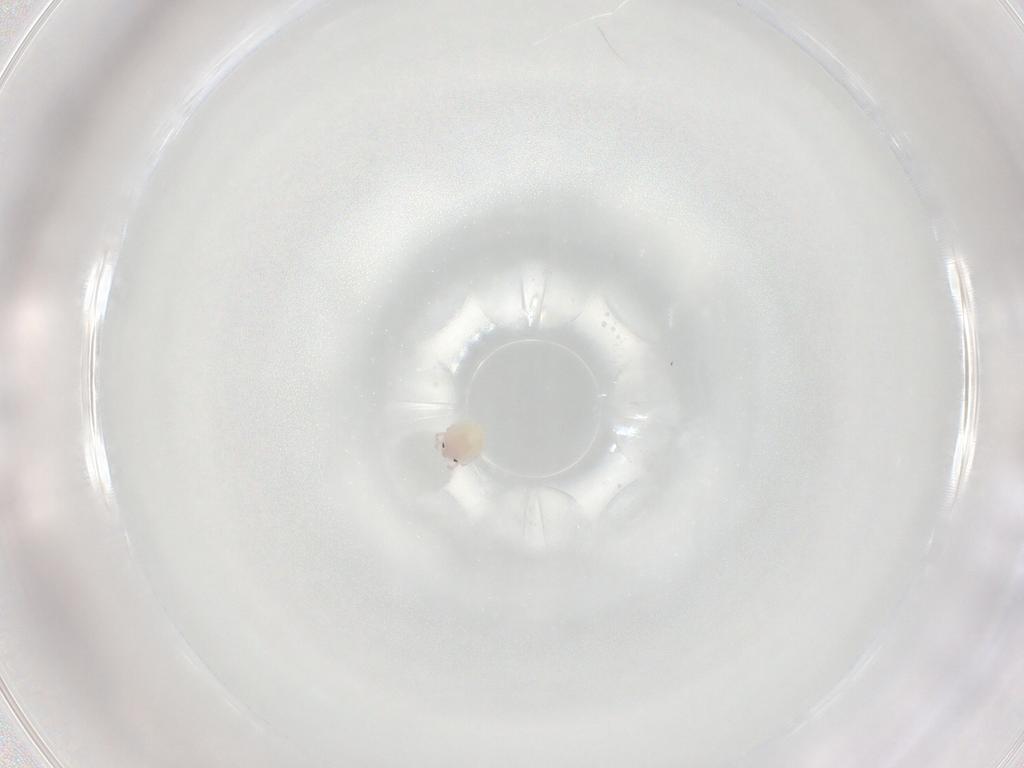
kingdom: Animalia
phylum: Arthropoda
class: Arachnida
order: Trombidiformes
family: Lebertiidae
